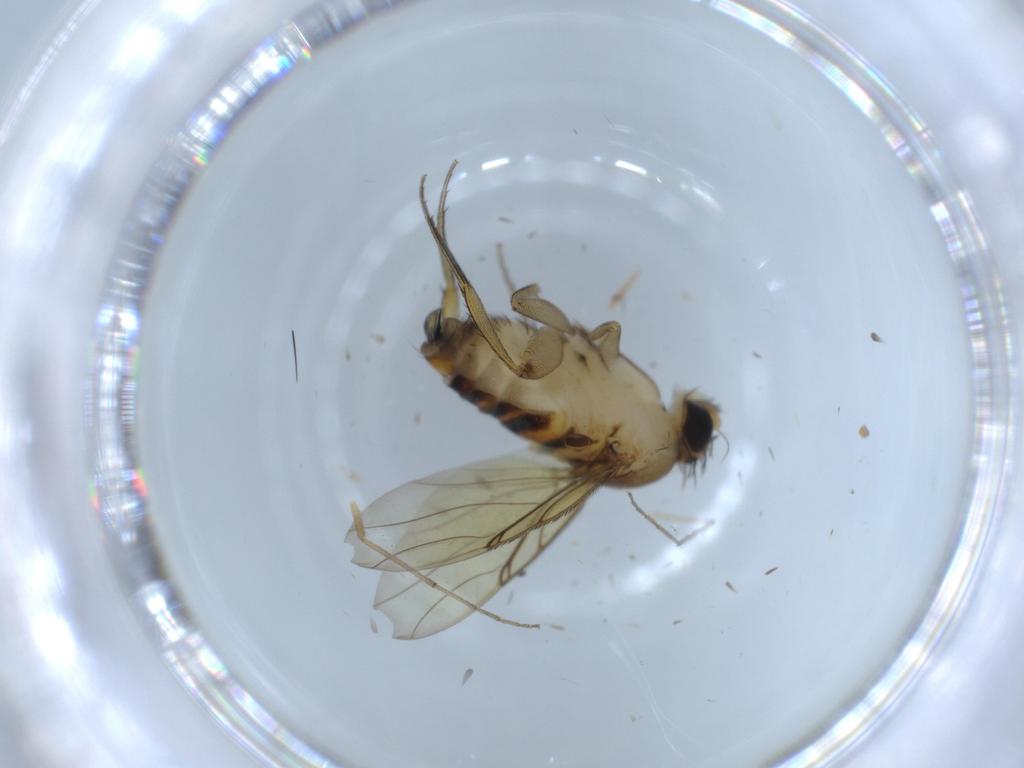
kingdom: Animalia
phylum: Arthropoda
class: Insecta
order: Diptera
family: Phoridae
